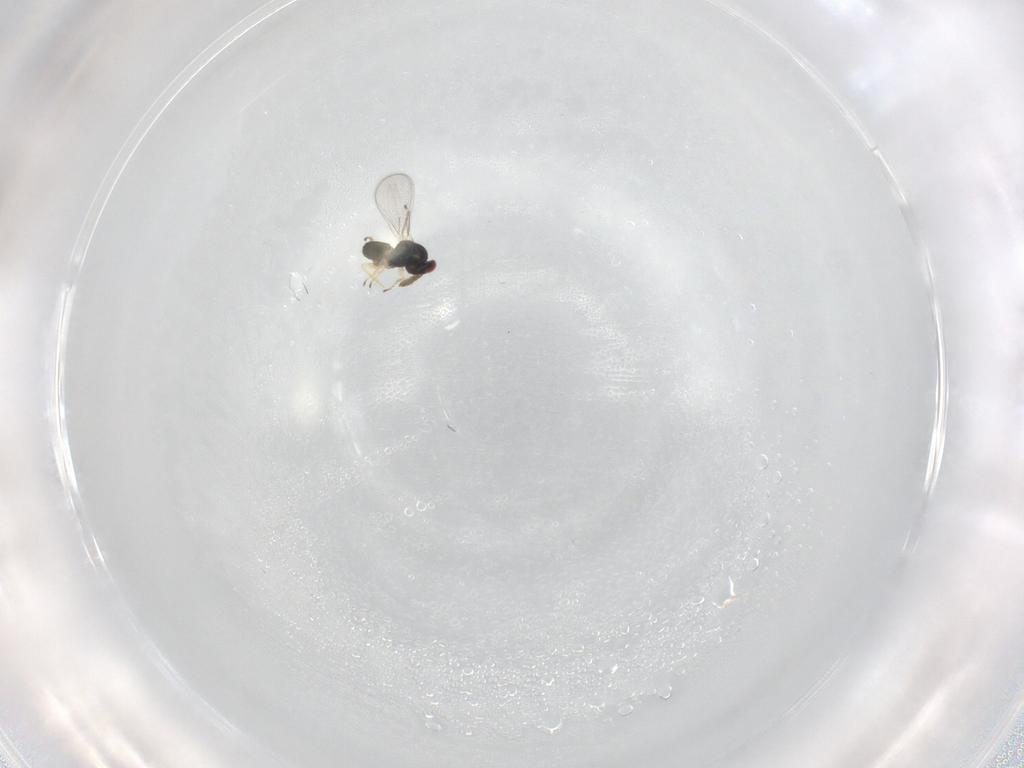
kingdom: Animalia
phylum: Arthropoda
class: Insecta
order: Hymenoptera
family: Eulophidae
